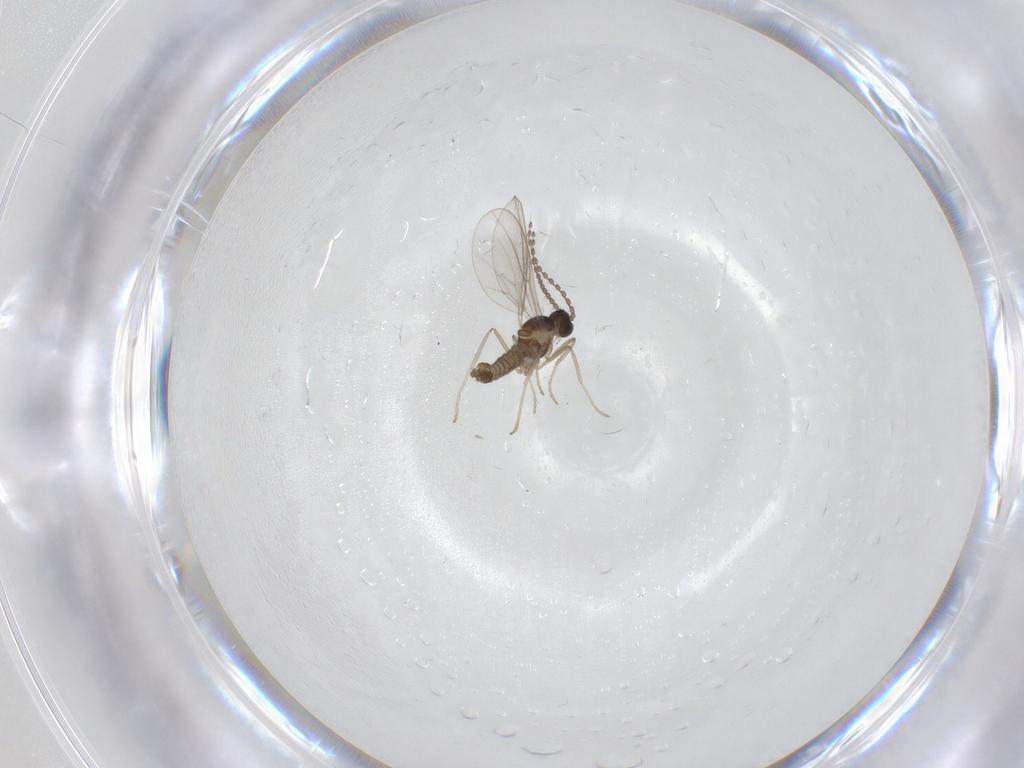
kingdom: Animalia
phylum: Arthropoda
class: Insecta
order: Diptera
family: Cecidomyiidae
